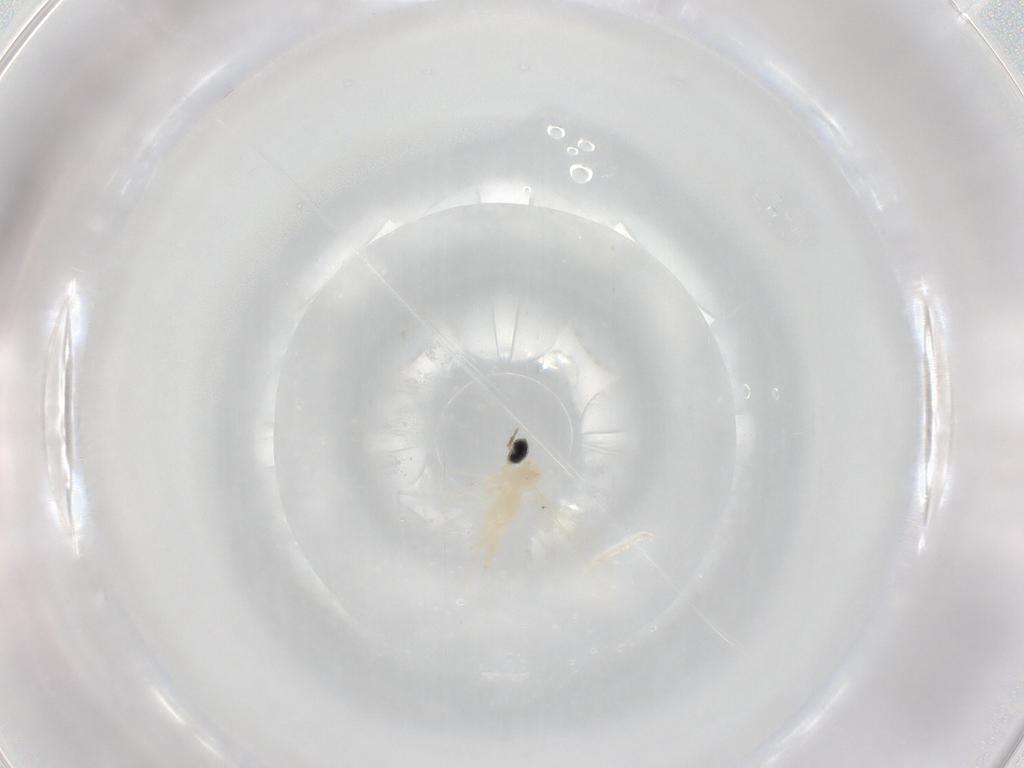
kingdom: Animalia
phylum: Arthropoda
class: Insecta
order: Diptera
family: Cecidomyiidae
